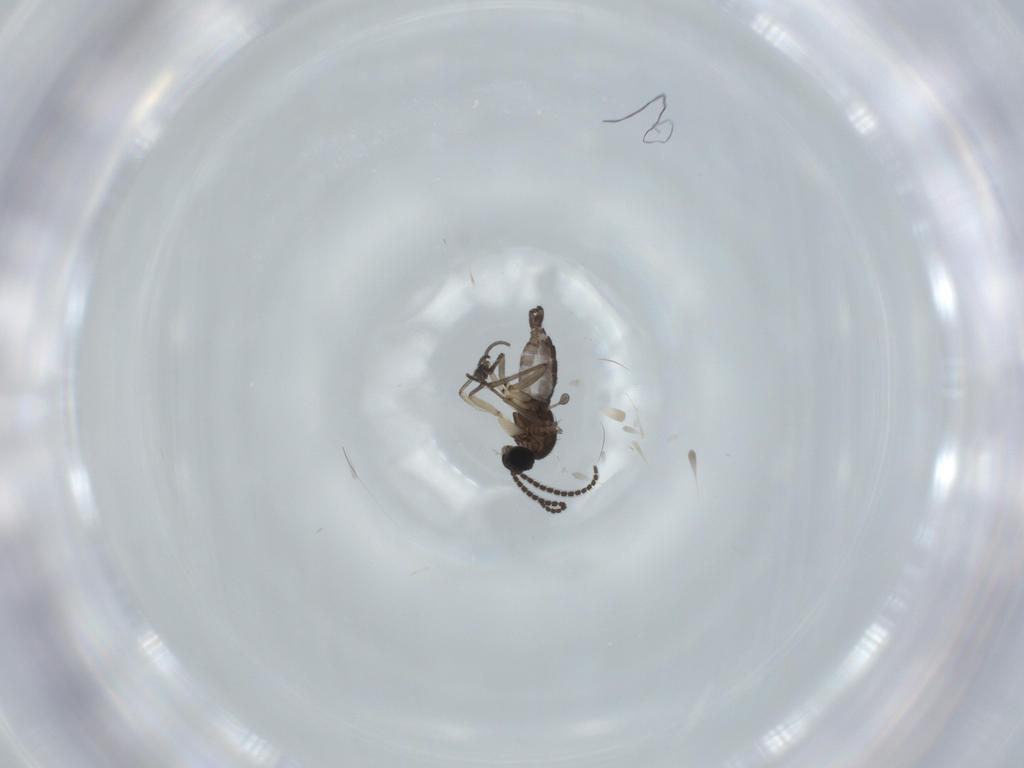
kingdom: Animalia
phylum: Arthropoda
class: Insecta
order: Diptera
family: Sciaridae
